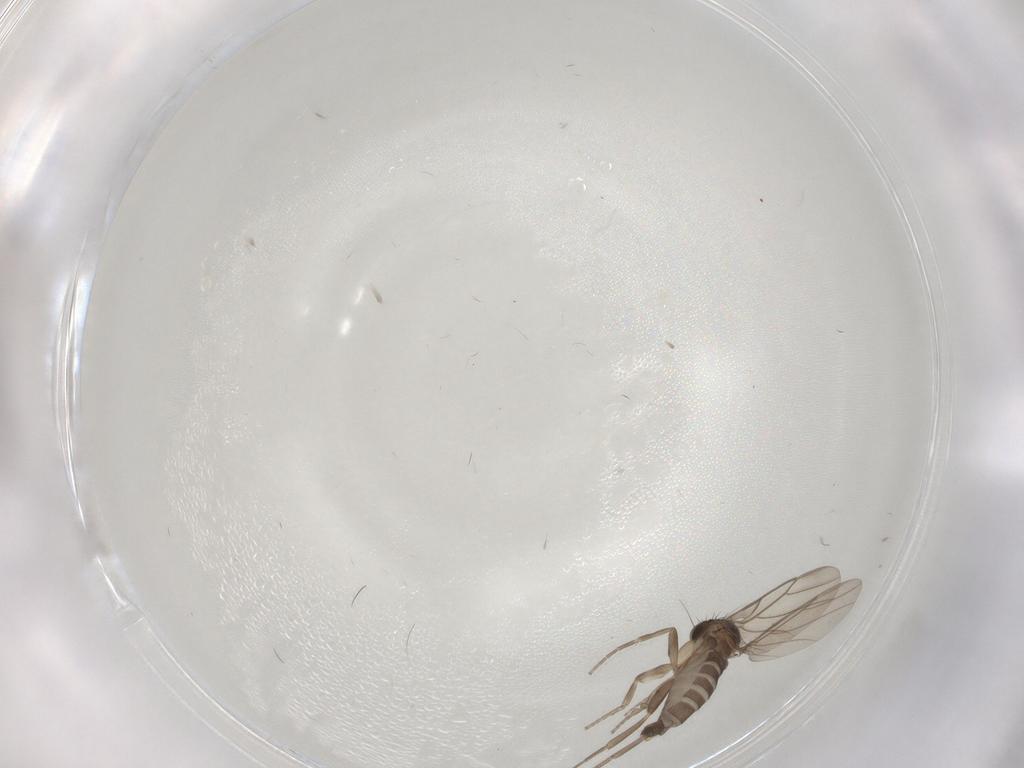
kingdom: Animalia
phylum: Arthropoda
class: Insecta
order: Diptera
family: Phoridae
